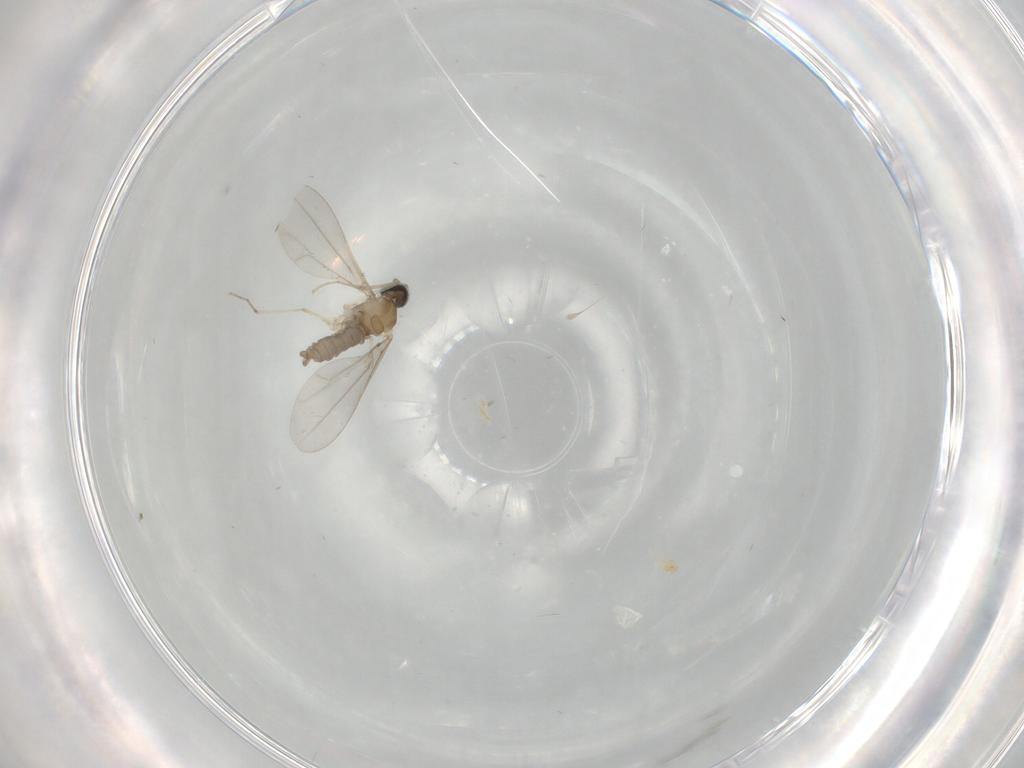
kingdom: Animalia
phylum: Arthropoda
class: Insecta
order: Diptera
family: Cecidomyiidae
